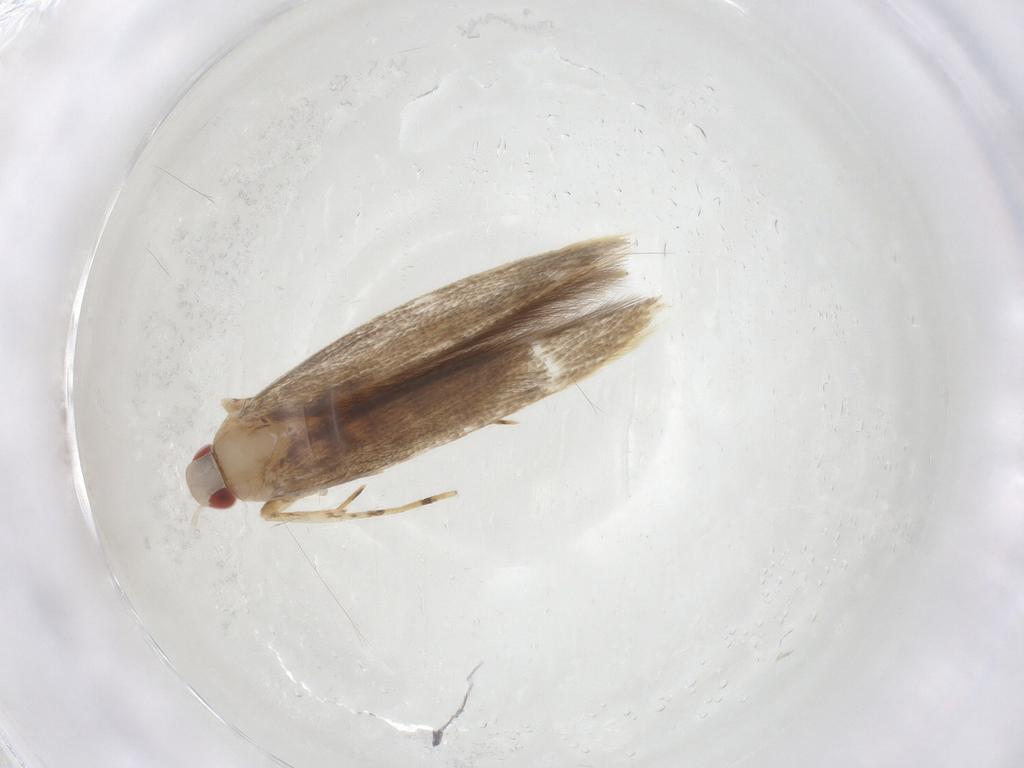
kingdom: Animalia
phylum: Arthropoda
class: Insecta
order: Lepidoptera
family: Cosmopterigidae
